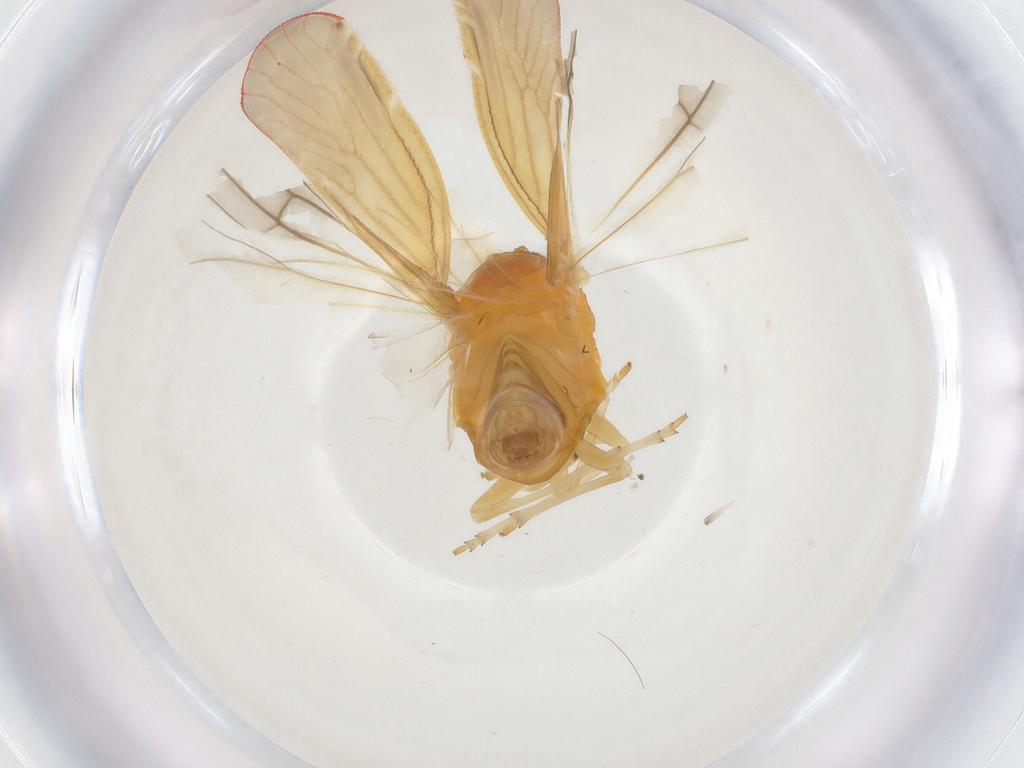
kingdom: Animalia
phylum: Arthropoda
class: Insecta
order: Hemiptera
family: Derbidae
